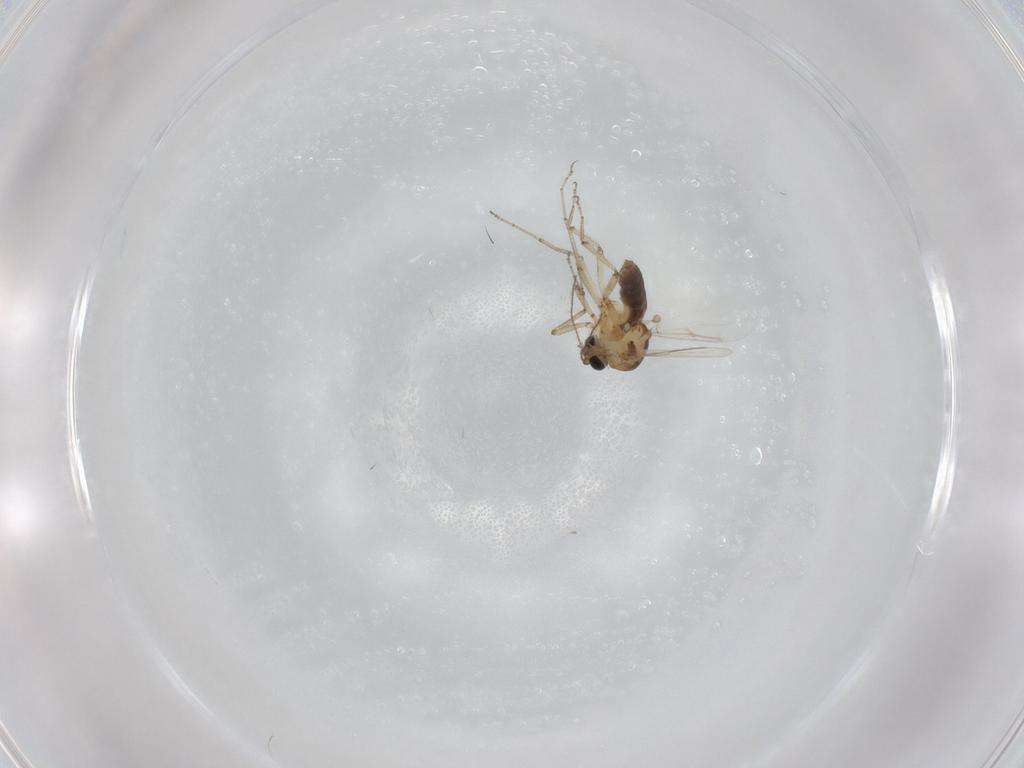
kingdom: Animalia
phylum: Arthropoda
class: Insecta
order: Diptera
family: Ceratopogonidae
